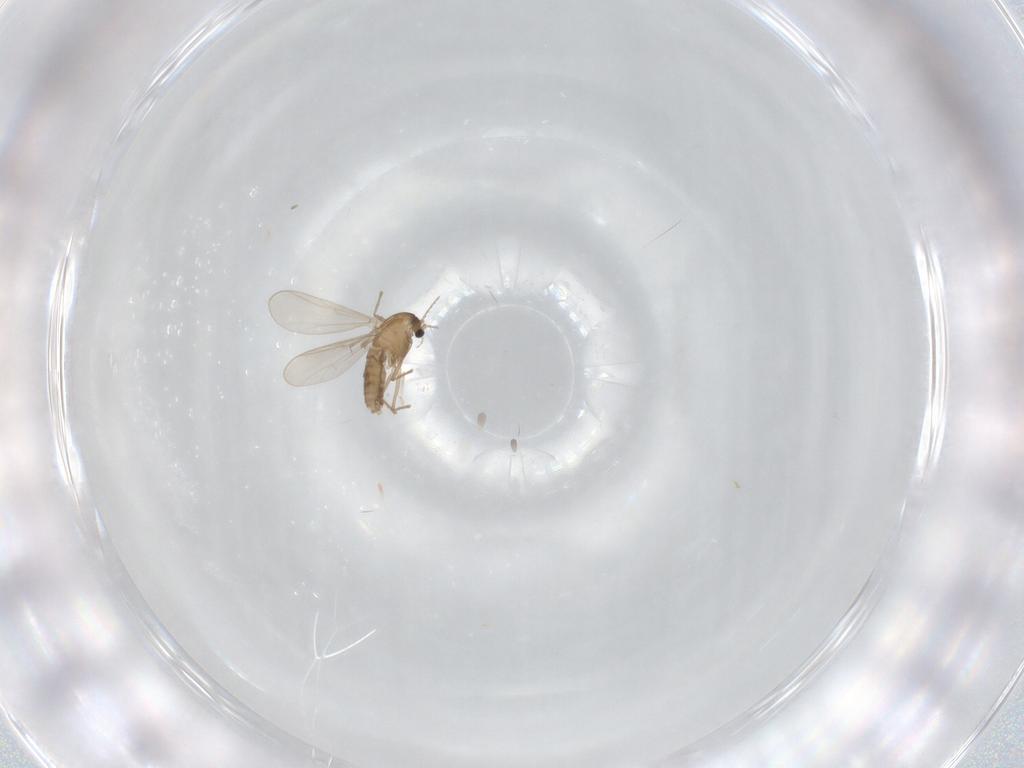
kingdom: Animalia
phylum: Arthropoda
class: Insecta
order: Diptera
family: Chironomidae
